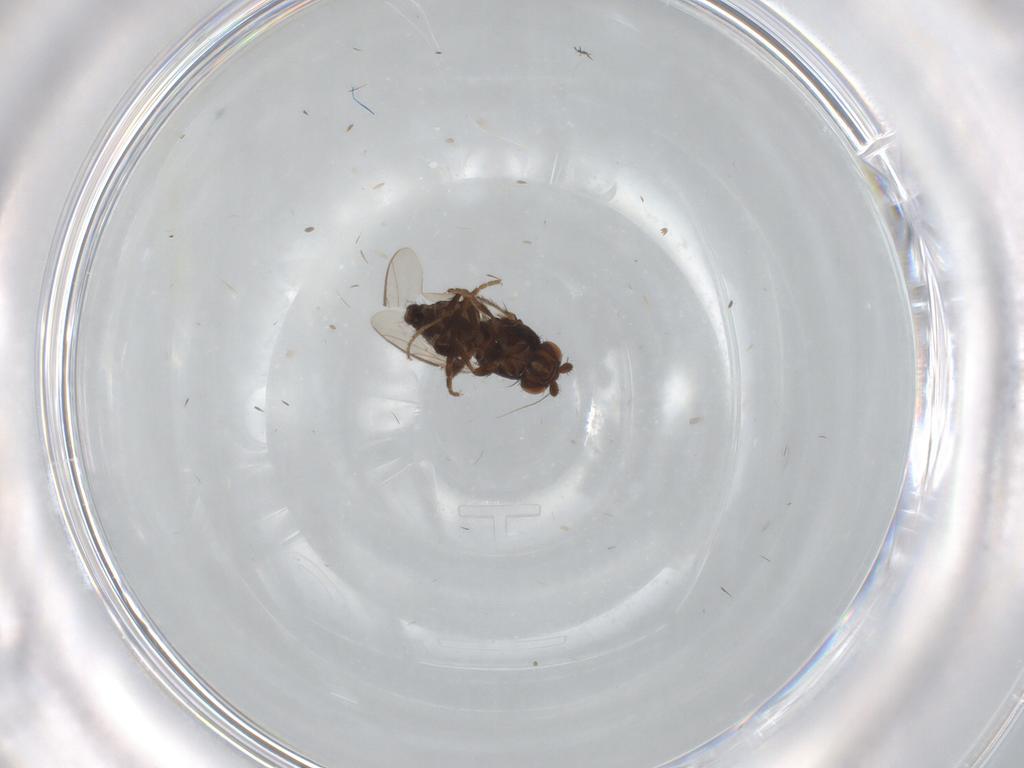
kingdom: Animalia
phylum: Arthropoda
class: Insecta
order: Diptera
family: Sphaeroceridae
